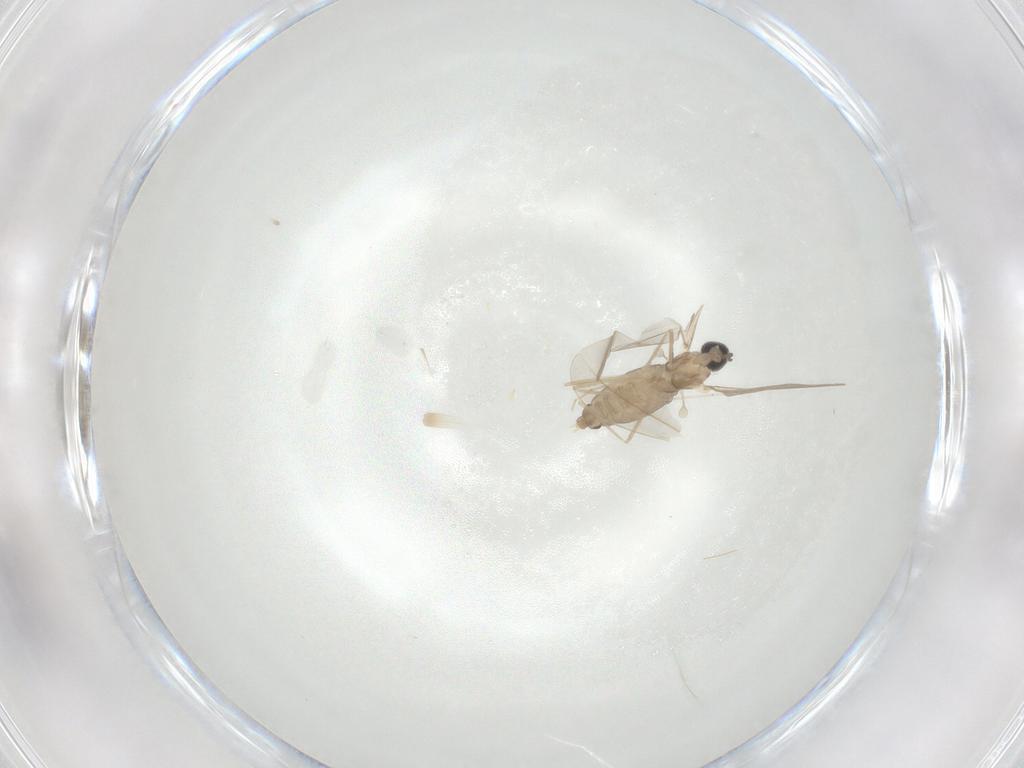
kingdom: Animalia
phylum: Arthropoda
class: Insecta
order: Diptera
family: Cecidomyiidae
